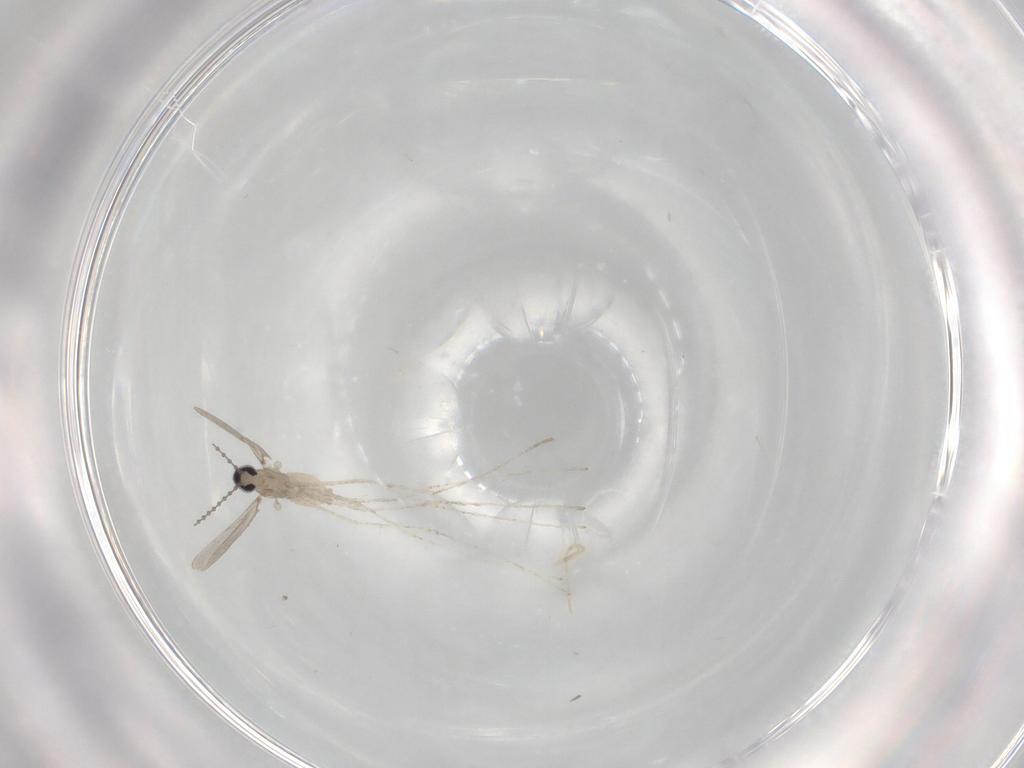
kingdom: Animalia
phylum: Arthropoda
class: Insecta
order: Diptera
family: Cecidomyiidae
